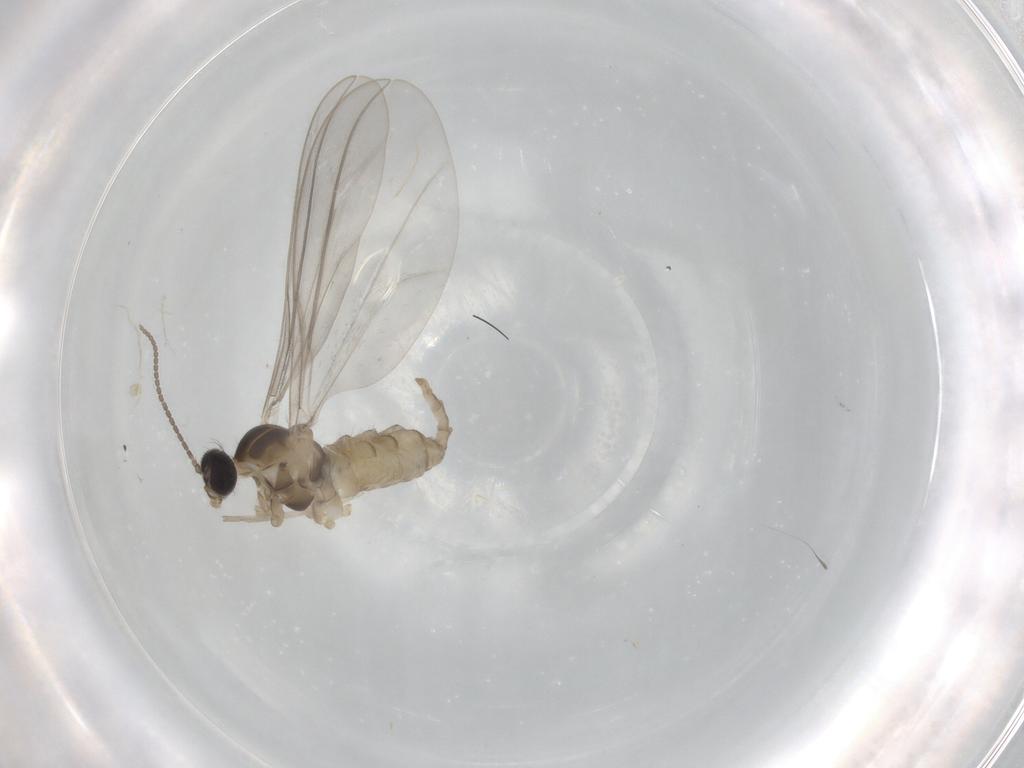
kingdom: Animalia
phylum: Arthropoda
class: Insecta
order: Diptera
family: Cecidomyiidae
